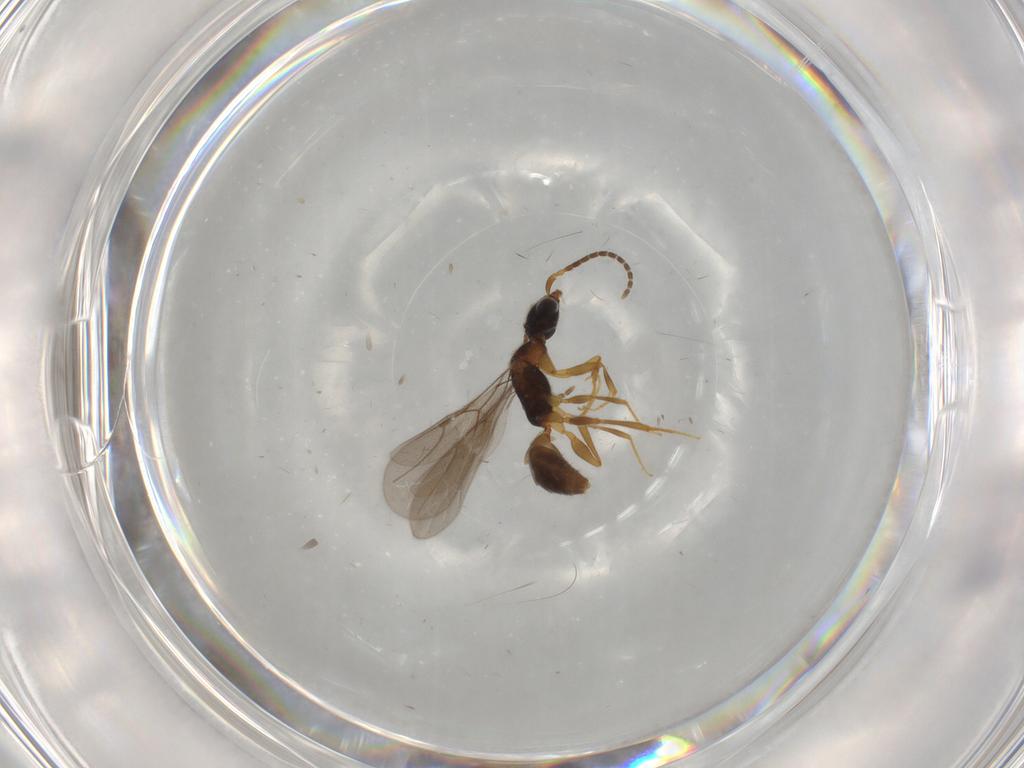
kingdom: Animalia
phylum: Arthropoda
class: Insecta
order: Hymenoptera
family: Bethylidae
